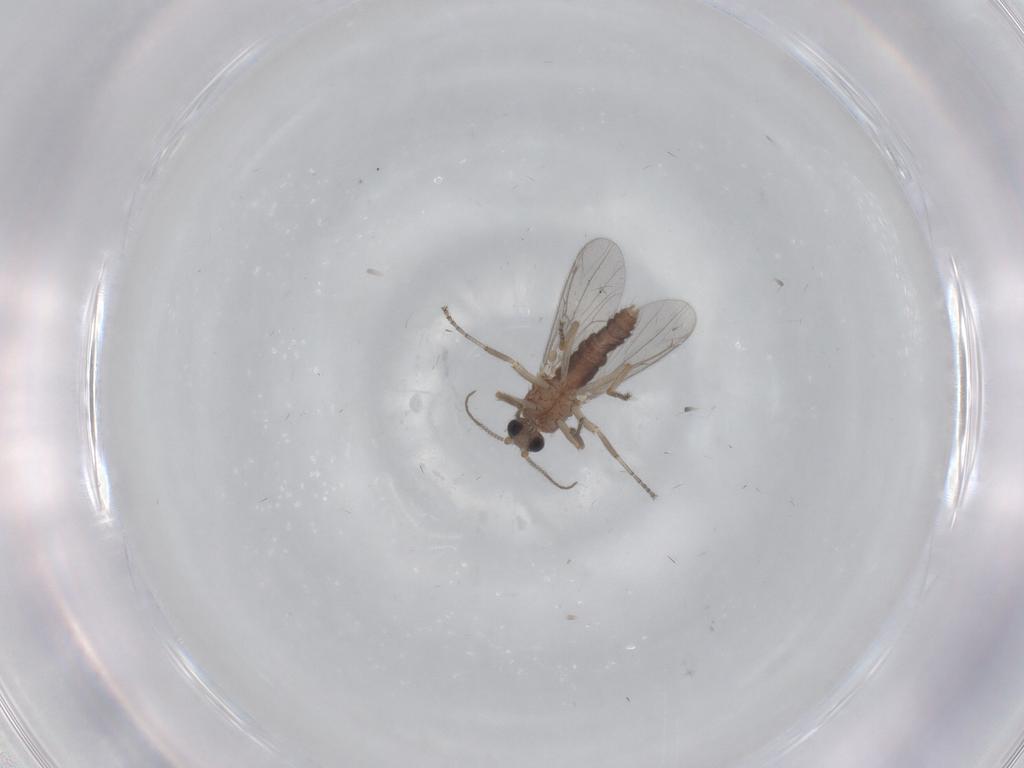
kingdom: Animalia
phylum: Arthropoda
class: Insecta
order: Diptera
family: Ceratopogonidae
